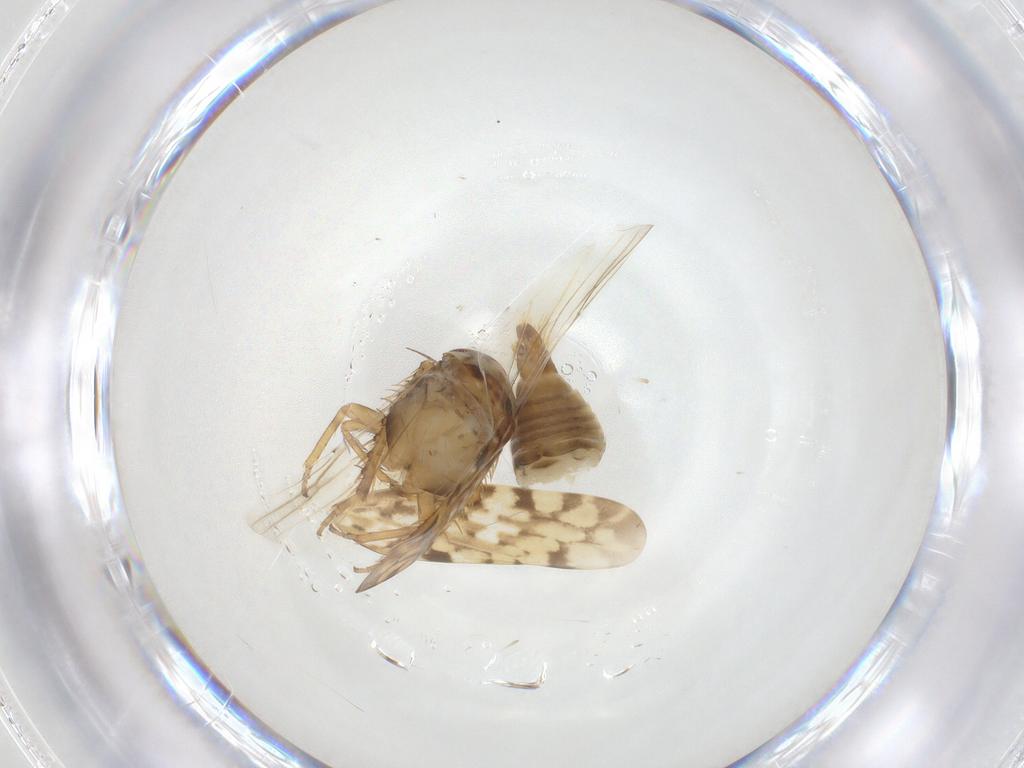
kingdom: Animalia
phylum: Arthropoda
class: Insecta
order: Hemiptera
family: Cicadellidae
